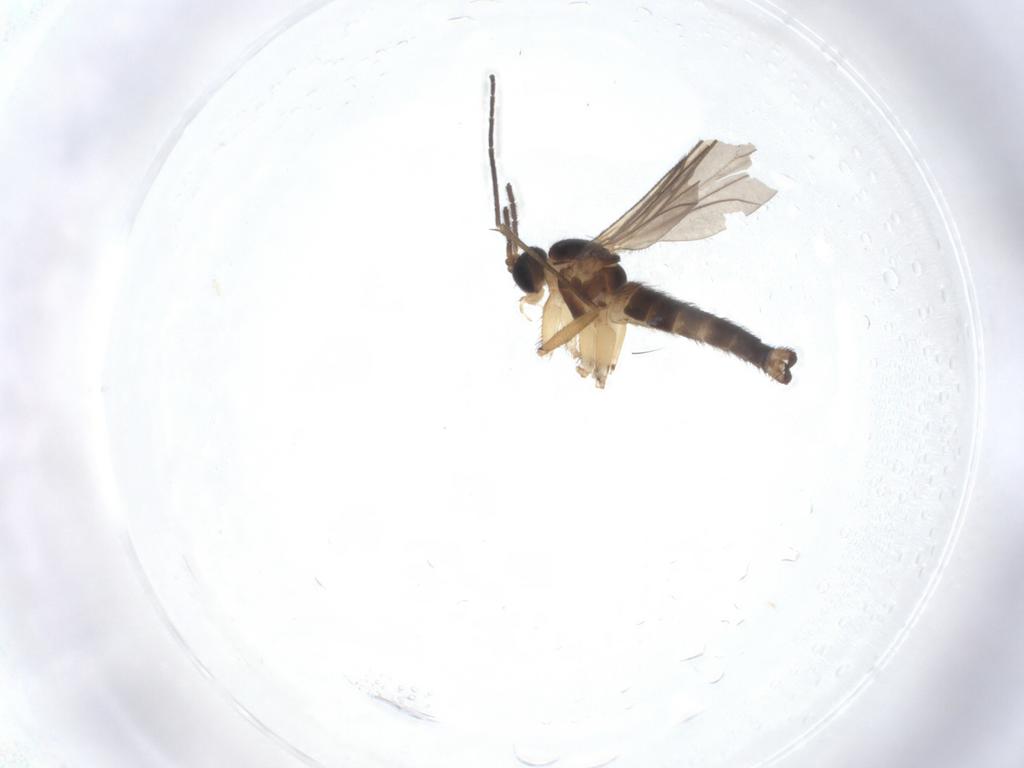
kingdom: Animalia
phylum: Arthropoda
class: Insecta
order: Diptera
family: Sciaridae
